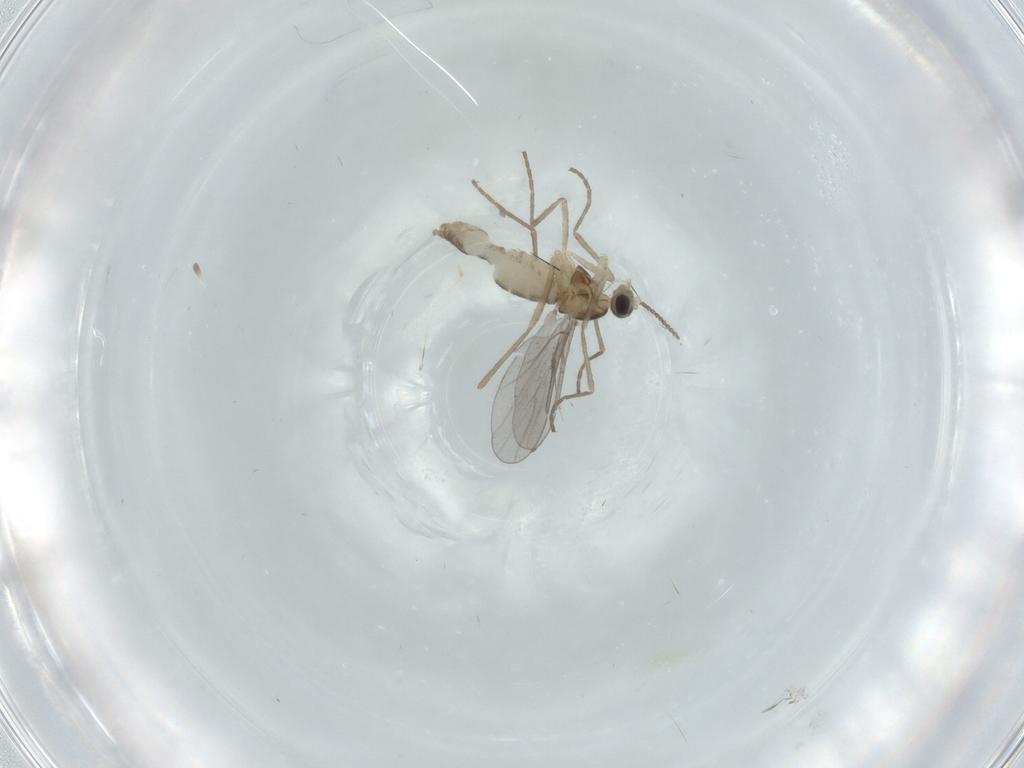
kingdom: Animalia
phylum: Arthropoda
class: Insecta
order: Diptera
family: Cecidomyiidae
